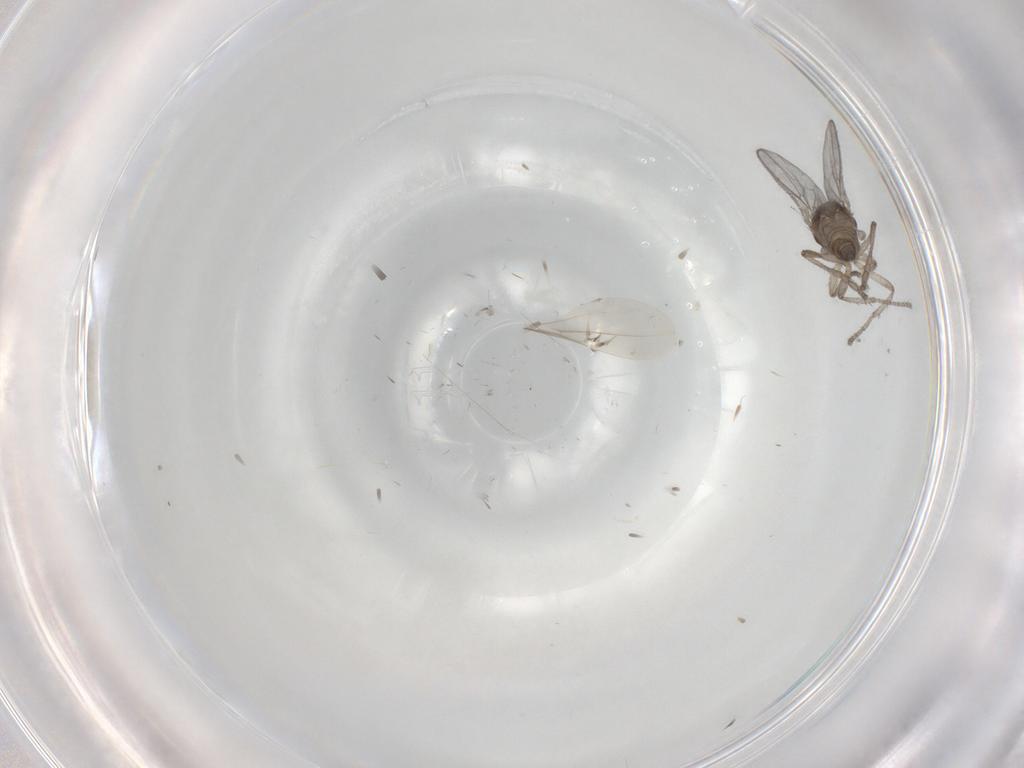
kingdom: Animalia
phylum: Arthropoda
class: Insecta
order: Diptera
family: Sphaeroceridae
